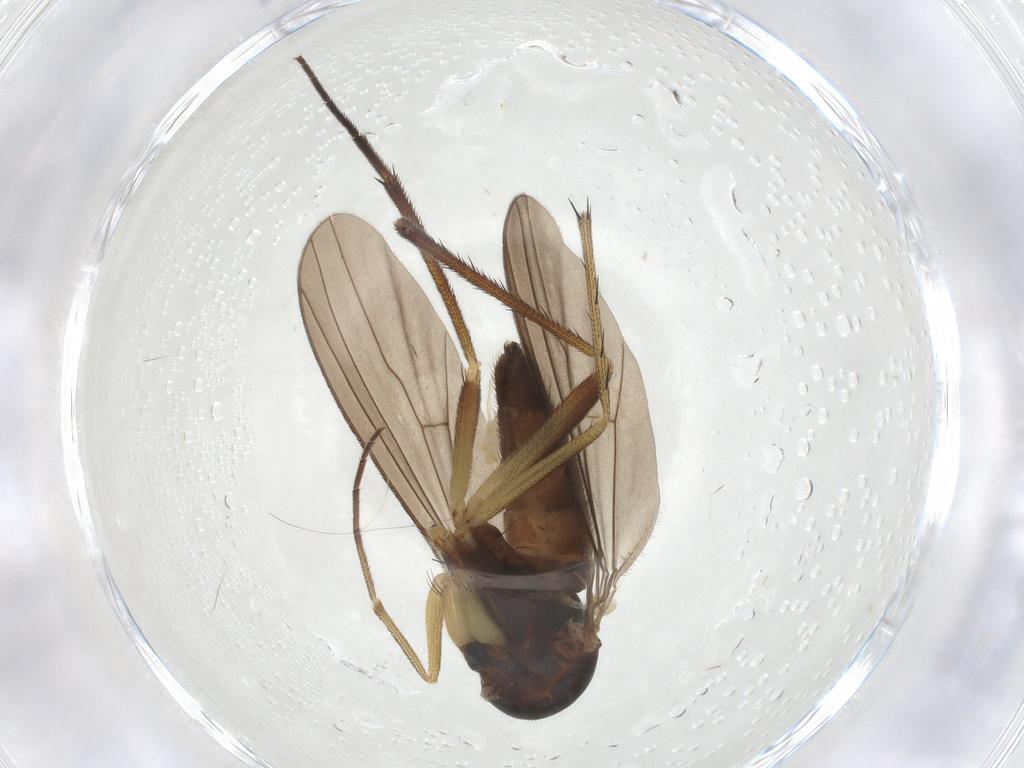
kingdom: Animalia
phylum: Arthropoda
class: Insecta
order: Diptera
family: Dolichopodidae
